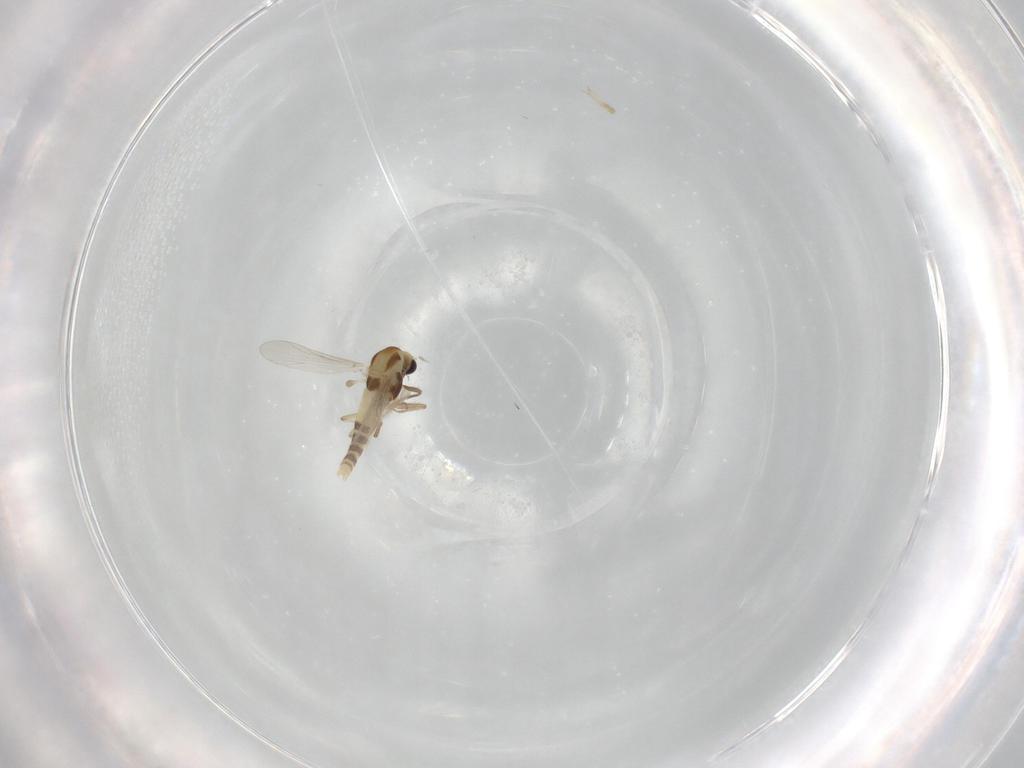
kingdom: Animalia
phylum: Arthropoda
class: Insecta
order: Diptera
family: Chironomidae
